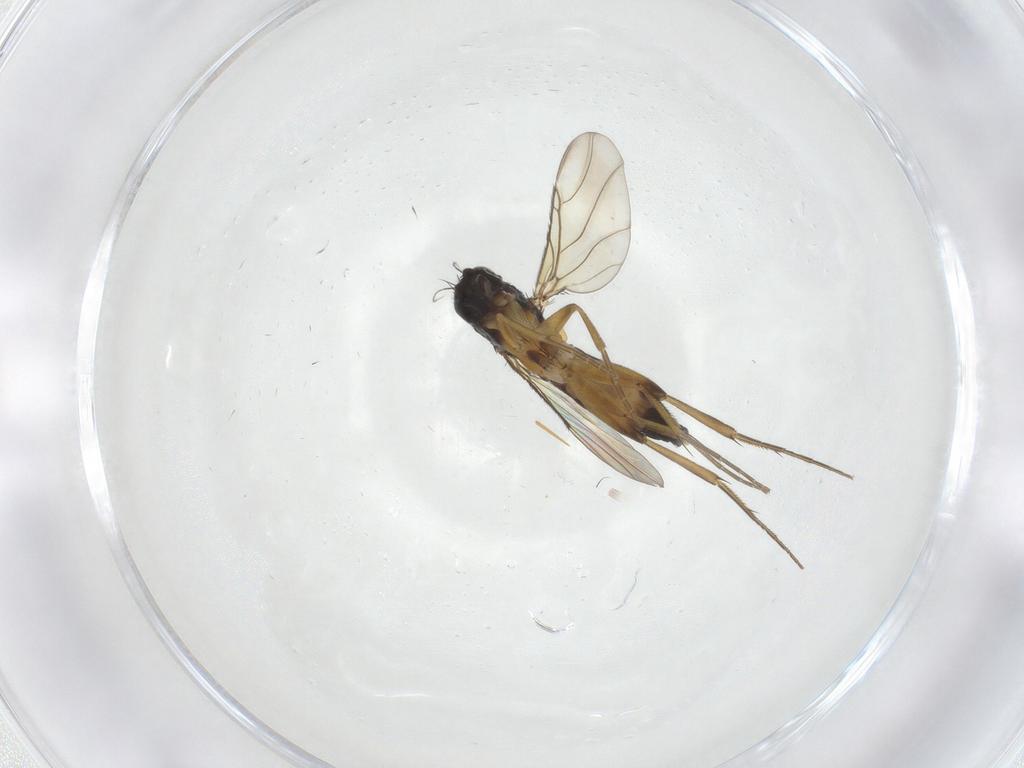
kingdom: Animalia
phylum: Arthropoda
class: Insecta
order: Diptera
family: Phoridae
